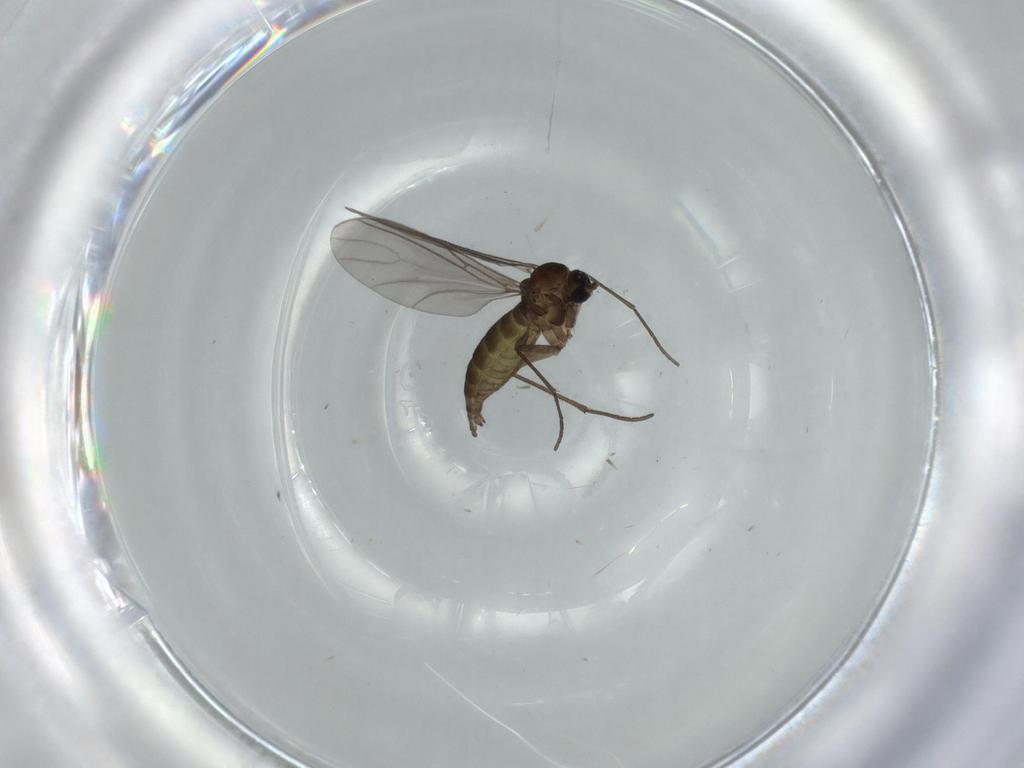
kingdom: Animalia
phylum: Arthropoda
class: Insecta
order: Diptera
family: Sciaridae
